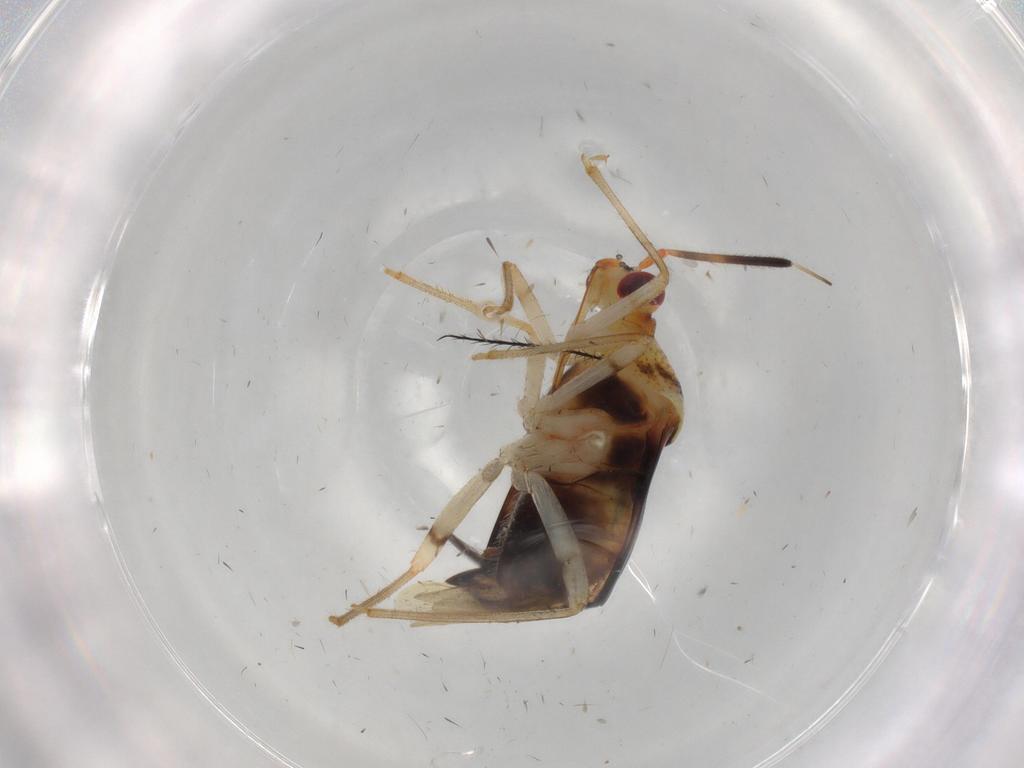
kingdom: Animalia
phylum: Arthropoda
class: Insecta
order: Hemiptera
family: Miridae
